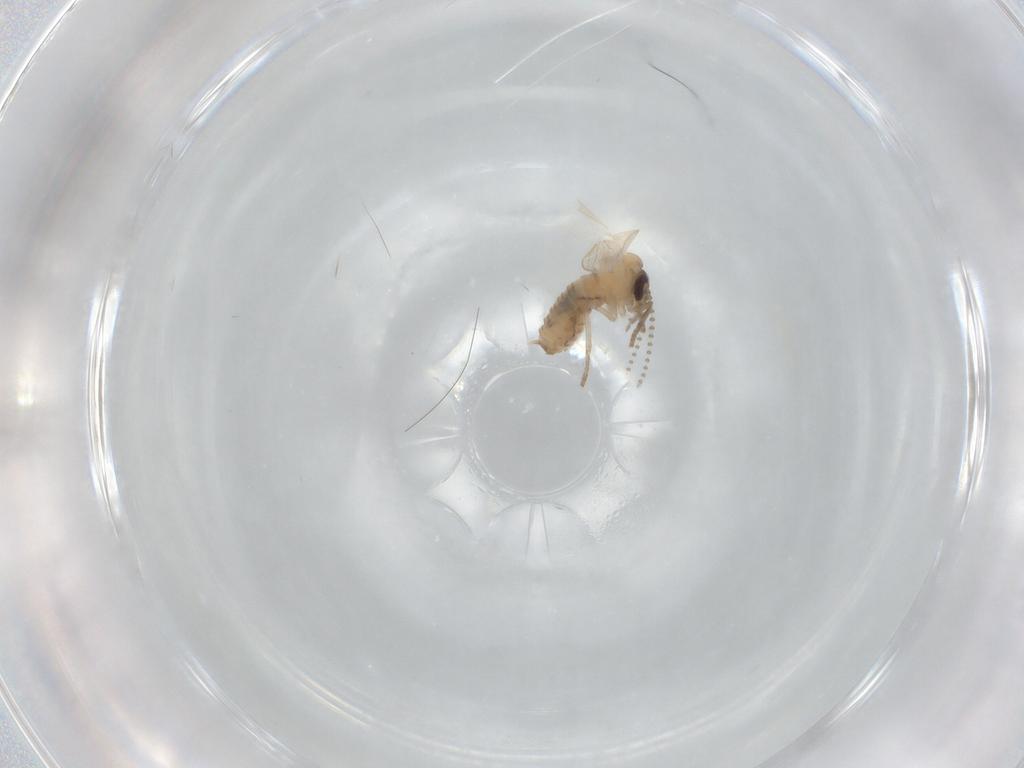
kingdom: Animalia
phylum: Arthropoda
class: Insecta
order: Diptera
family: Psychodidae
